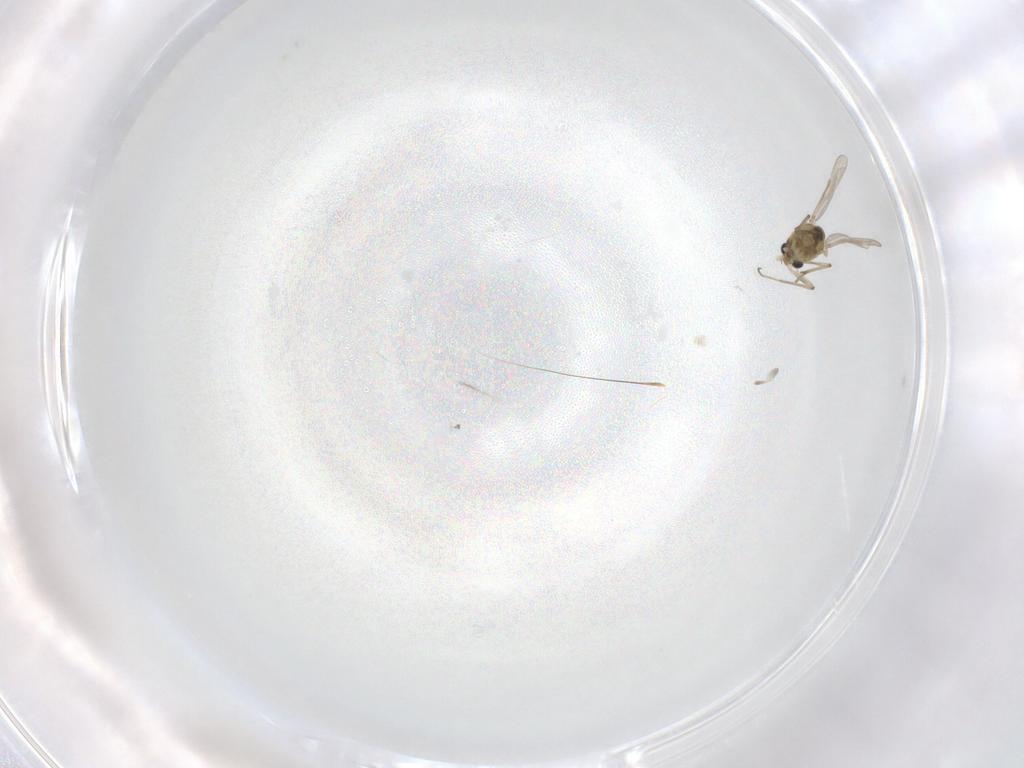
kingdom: Animalia
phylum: Arthropoda
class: Insecta
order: Diptera
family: Chironomidae
